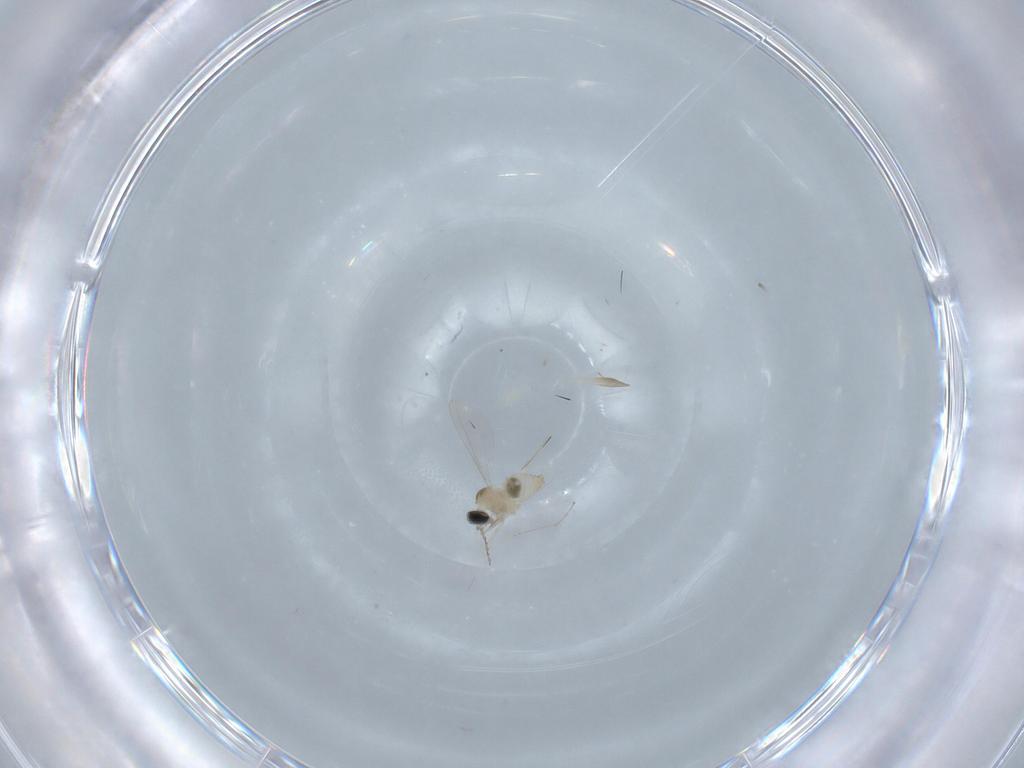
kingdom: Animalia
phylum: Arthropoda
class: Insecta
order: Diptera
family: Cecidomyiidae
